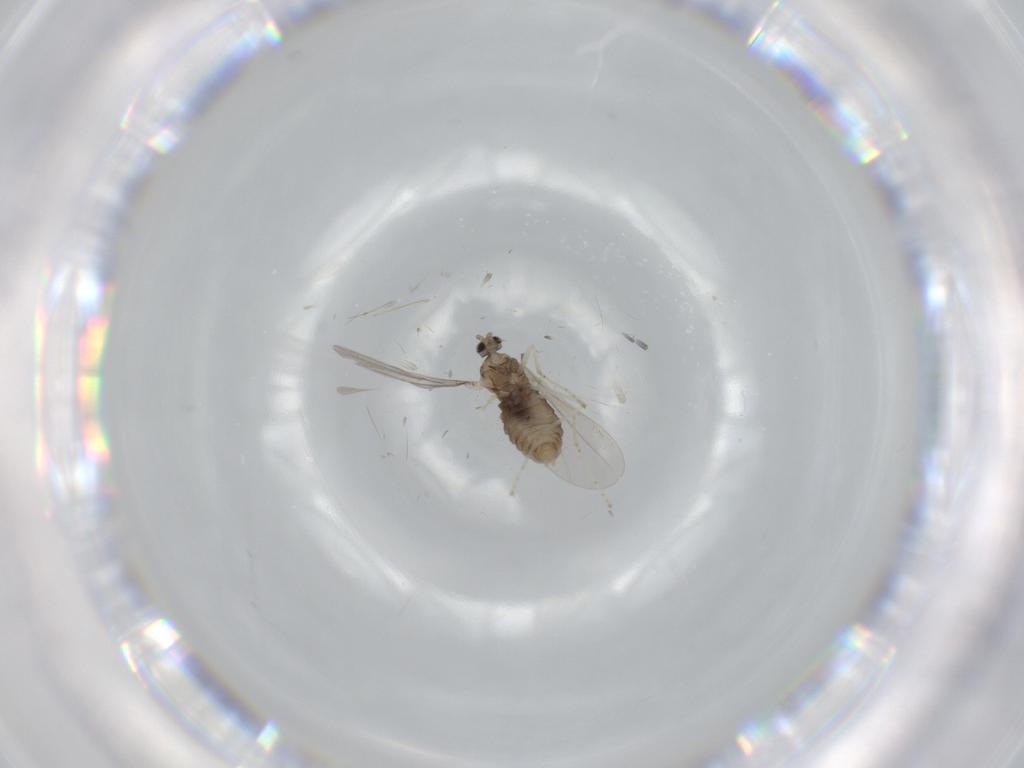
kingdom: Animalia
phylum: Arthropoda
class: Insecta
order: Diptera
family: Cecidomyiidae
